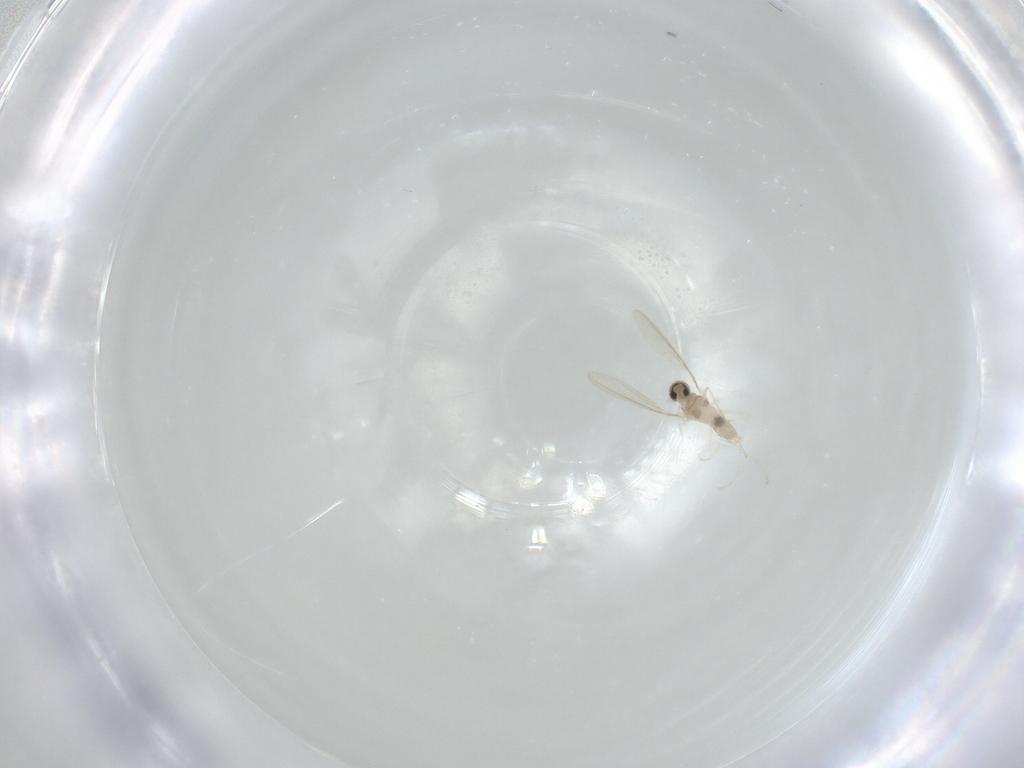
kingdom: Animalia
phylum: Arthropoda
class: Insecta
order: Diptera
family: Cecidomyiidae
